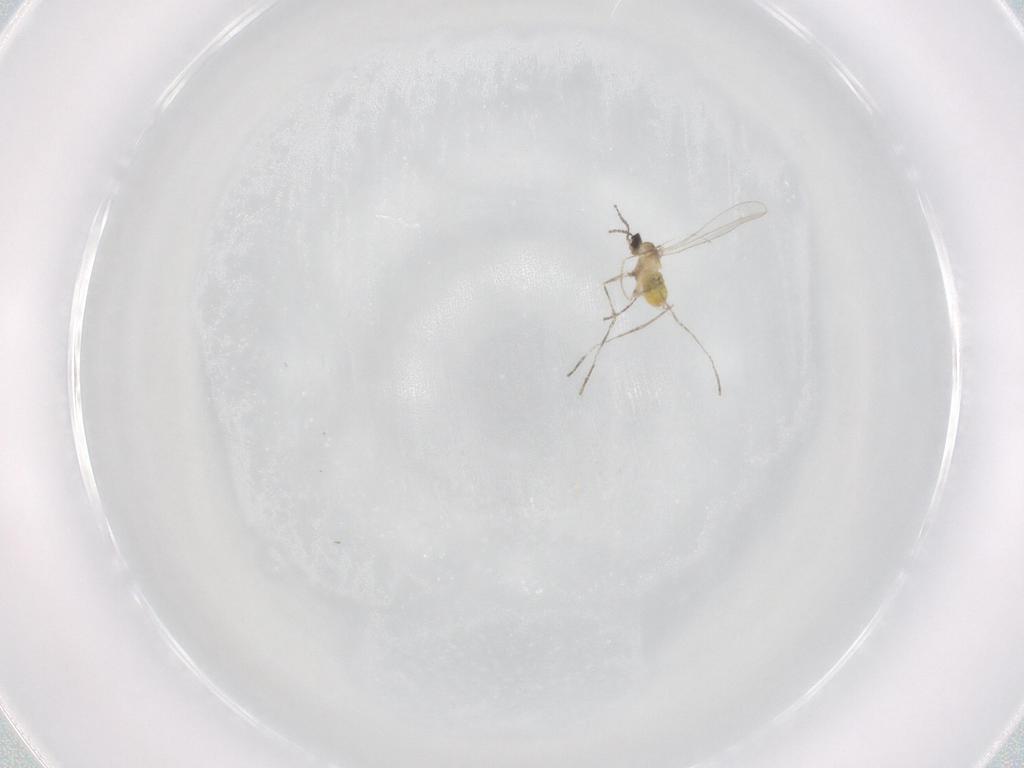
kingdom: Animalia
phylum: Arthropoda
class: Insecta
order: Diptera
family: Cecidomyiidae
